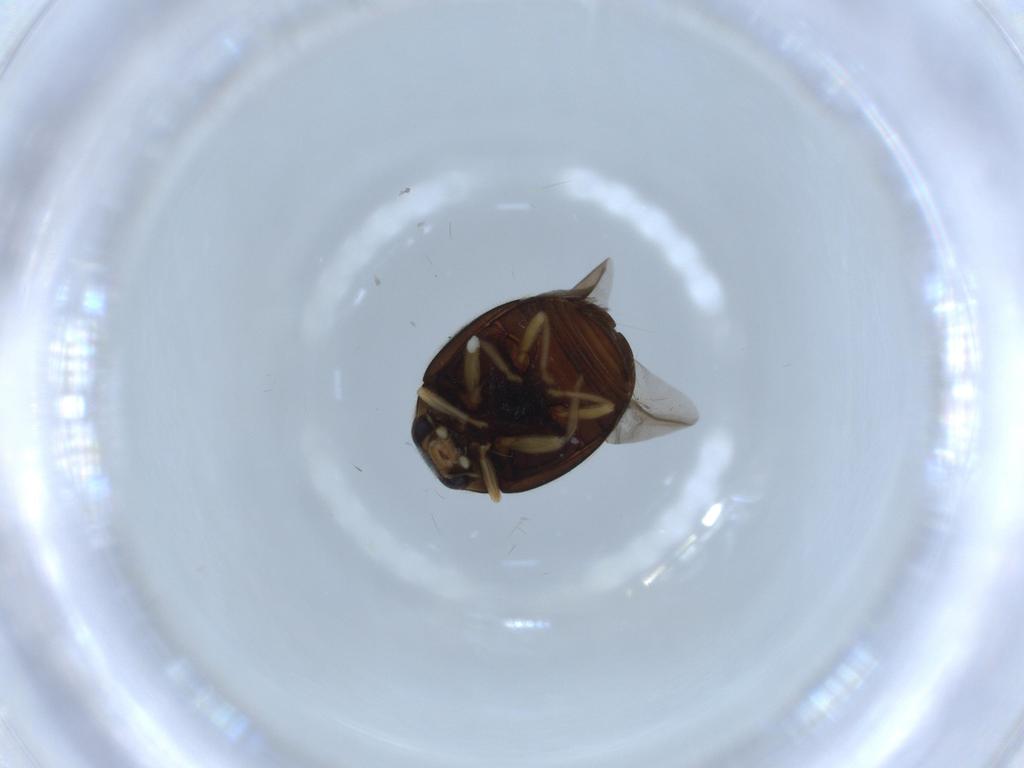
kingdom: Animalia
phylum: Arthropoda
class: Insecta
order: Coleoptera
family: Coccinellidae
